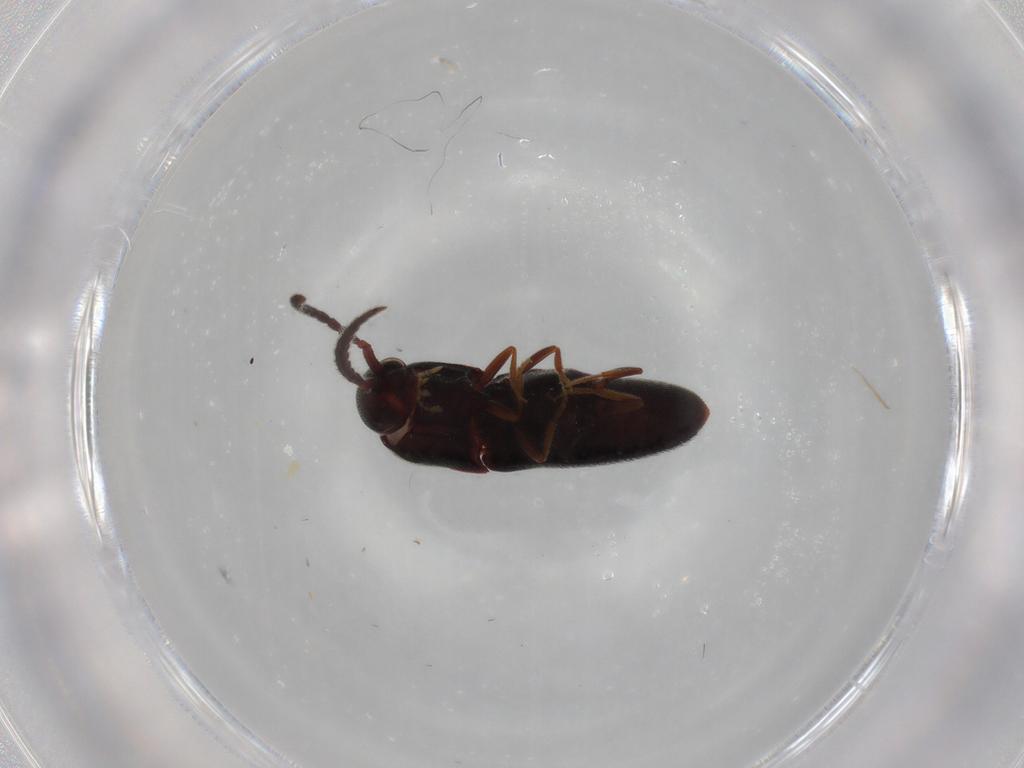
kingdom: Animalia
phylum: Arthropoda
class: Insecta
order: Coleoptera
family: Eucnemidae
